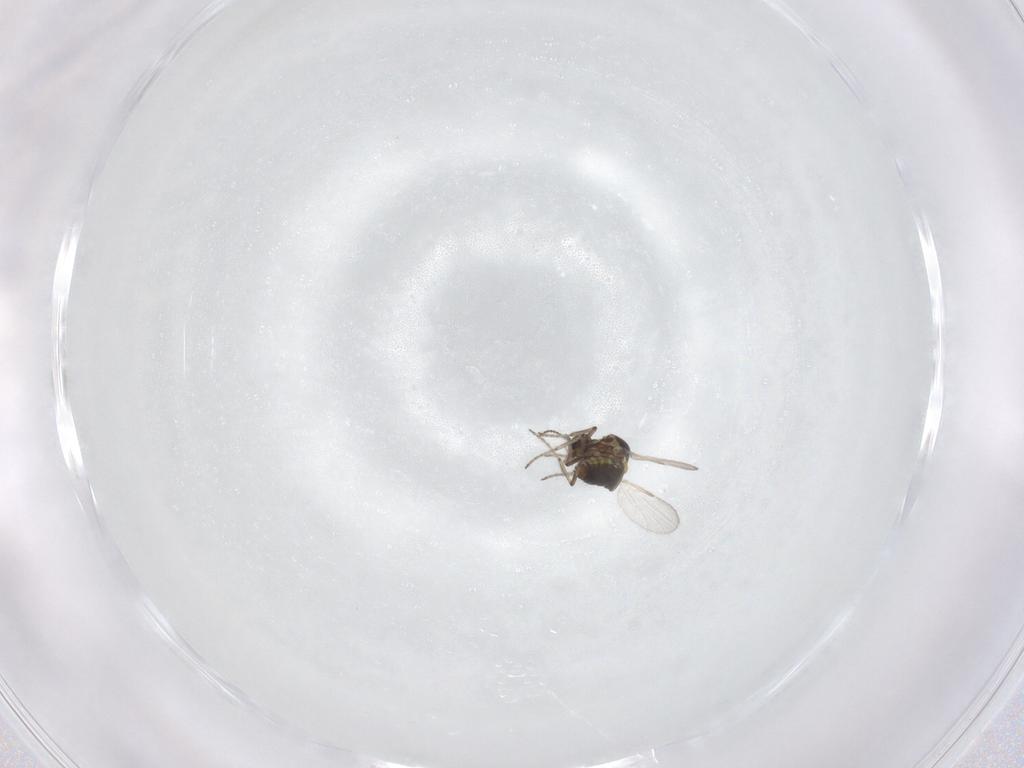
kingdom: Animalia
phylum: Arthropoda
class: Insecta
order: Diptera
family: Ceratopogonidae
